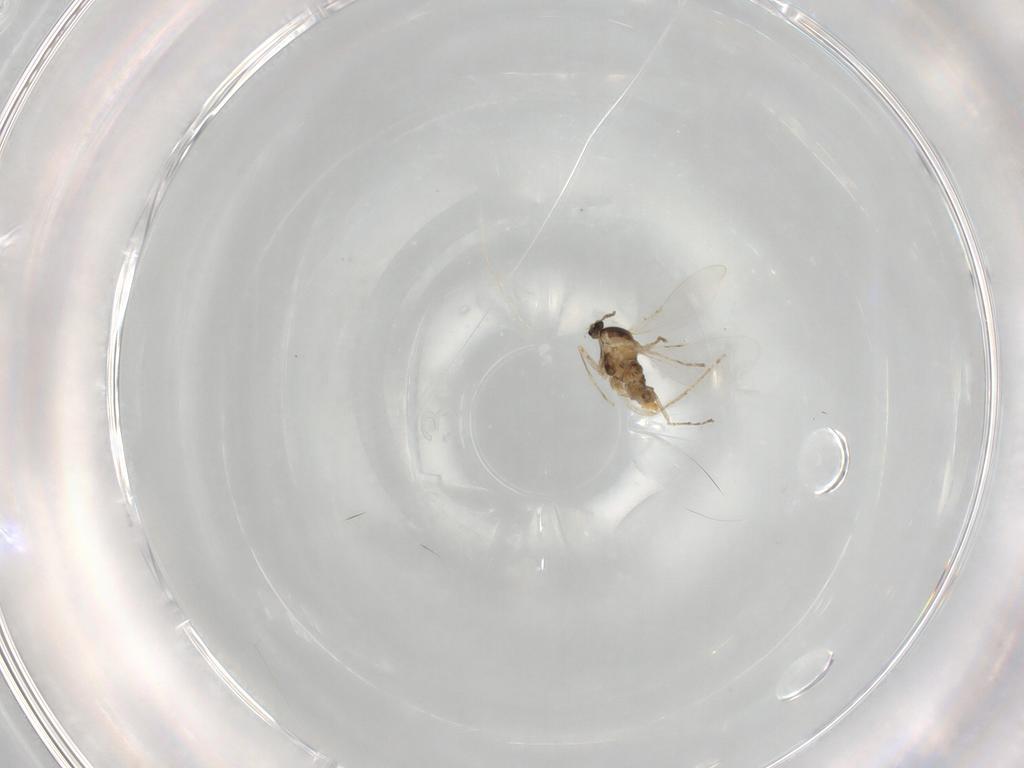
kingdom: Animalia
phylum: Arthropoda
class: Insecta
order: Diptera
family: Cecidomyiidae
